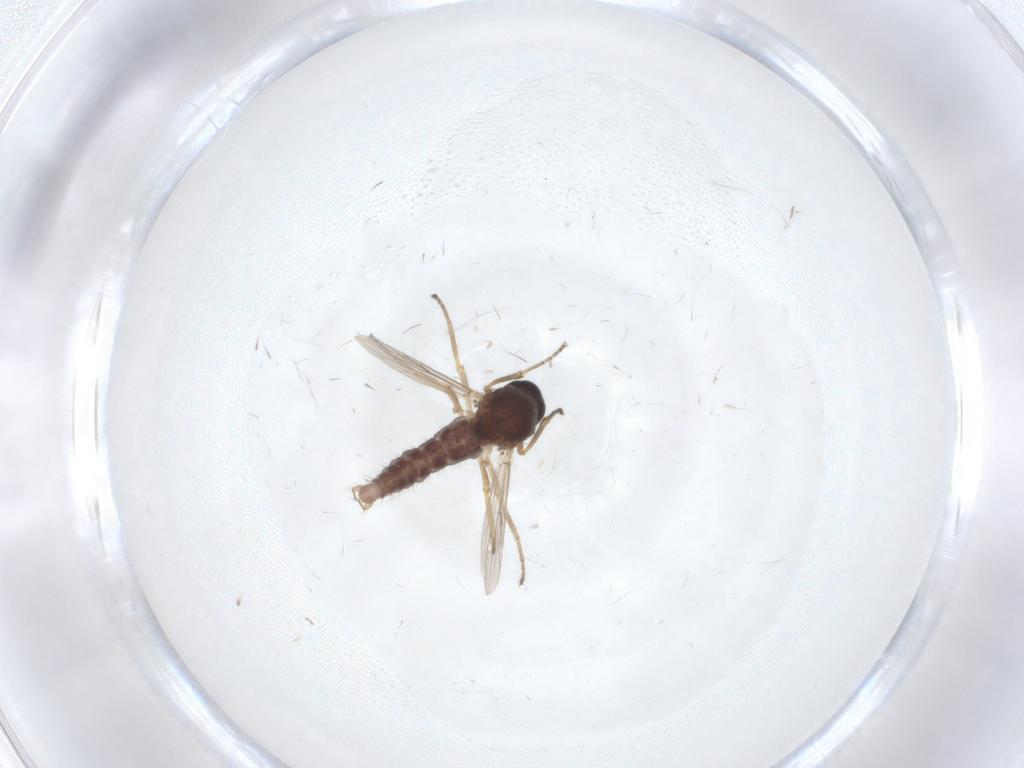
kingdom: Animalia
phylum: Arthropoda
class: Insecta
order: Diptera
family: Ceratopogonidae
